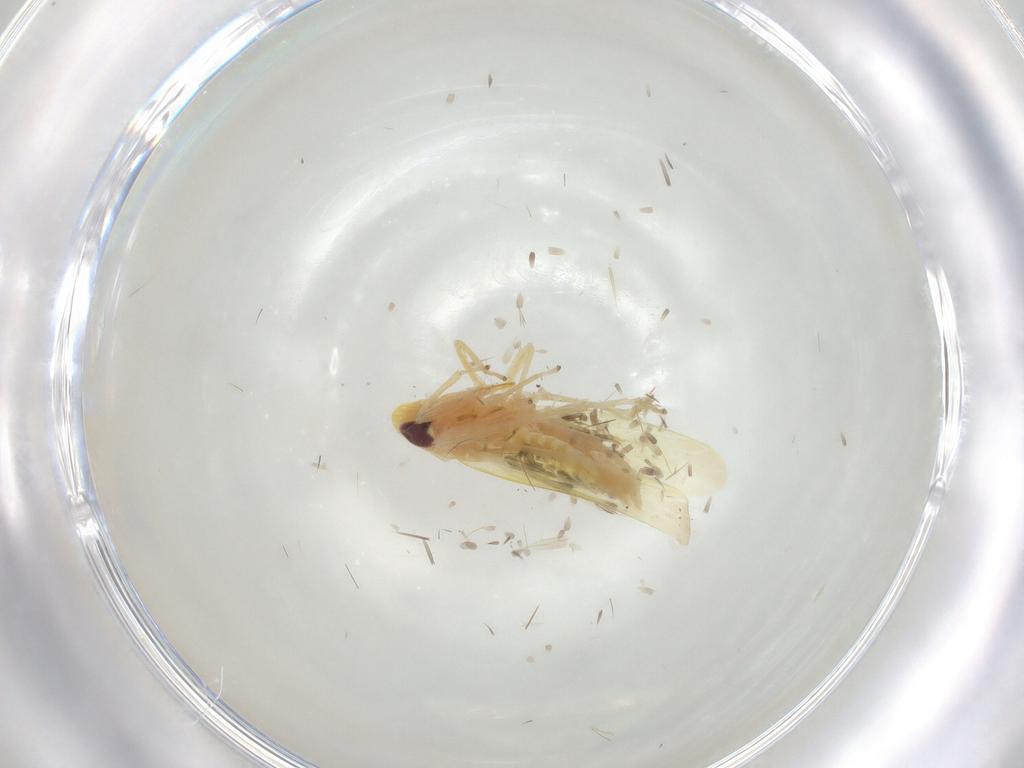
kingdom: Animalia
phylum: Arthropoda
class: Insecta
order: Hemiptera
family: Cicadellidae
